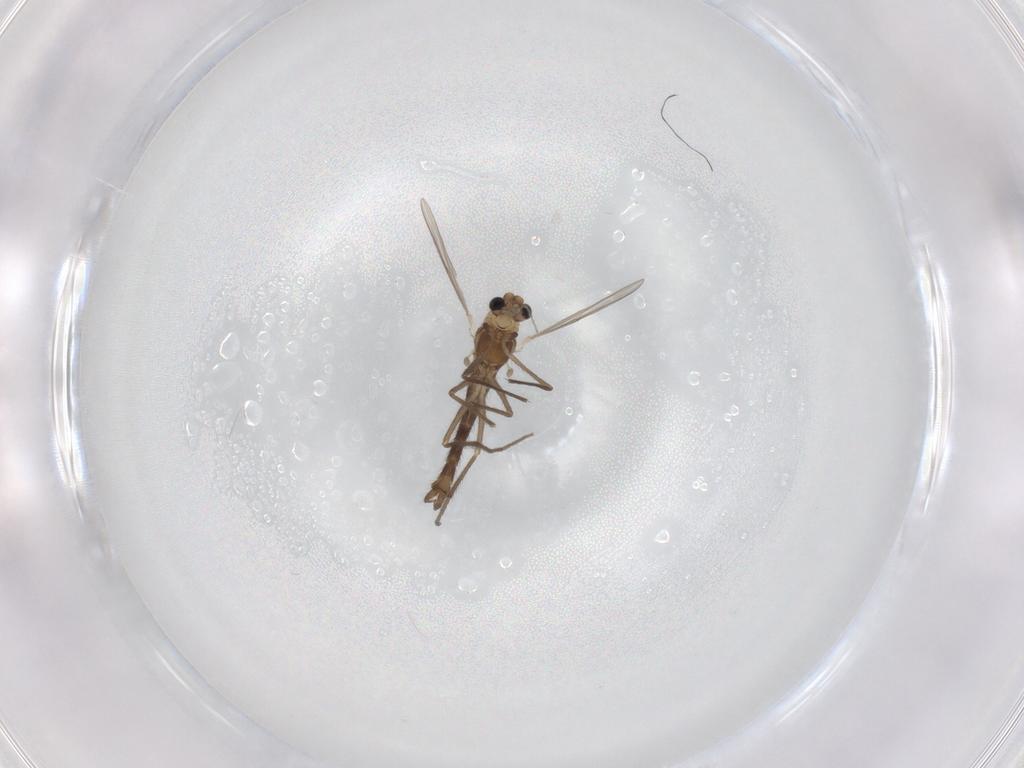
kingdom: Animalia
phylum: Arthropoda
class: Insecta
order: Diptera
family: Chironomidae
